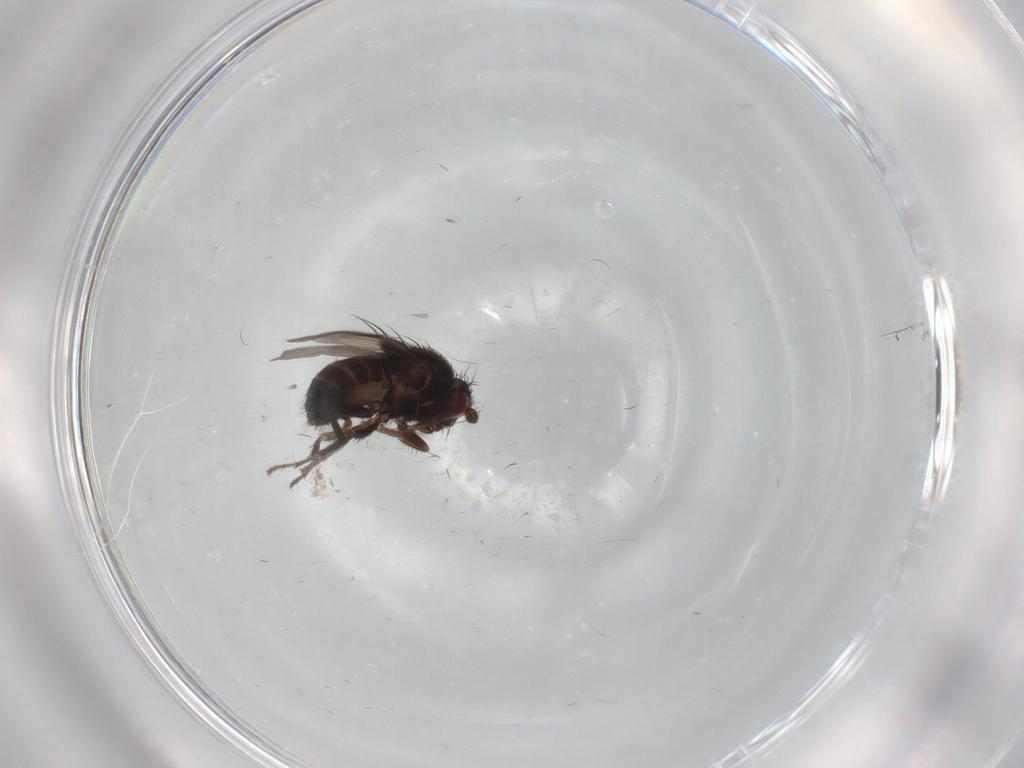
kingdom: Animalia
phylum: Arthropoda
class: Insecta
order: Diptera
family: Sphaeroceridae
